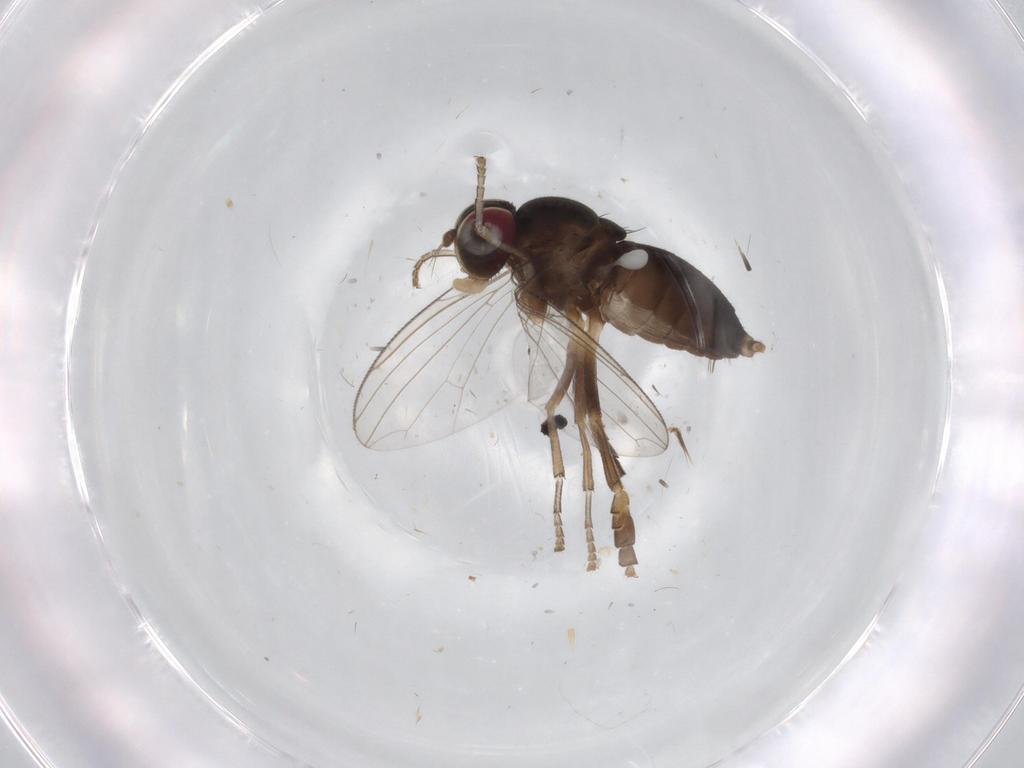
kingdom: Animalia
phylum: Arthropoda
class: Insecta
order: Diptera
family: Platypezidae
